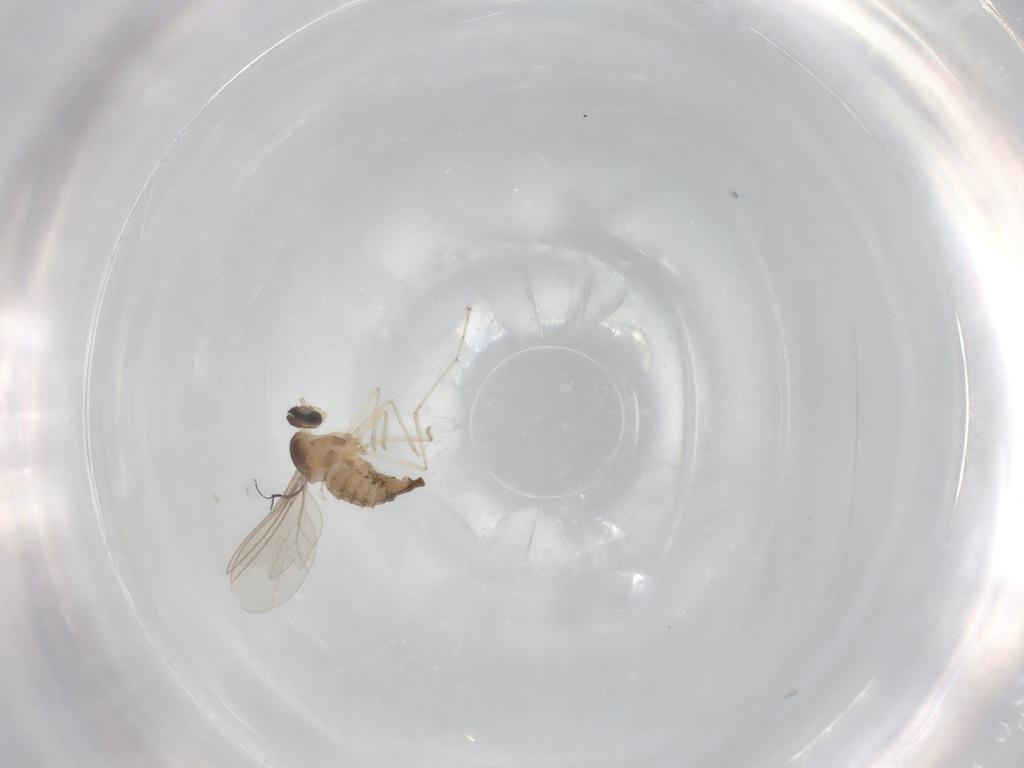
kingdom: Animalia
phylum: Arthropoda
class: Insecta
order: Diptera
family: Cecidomyiidae
